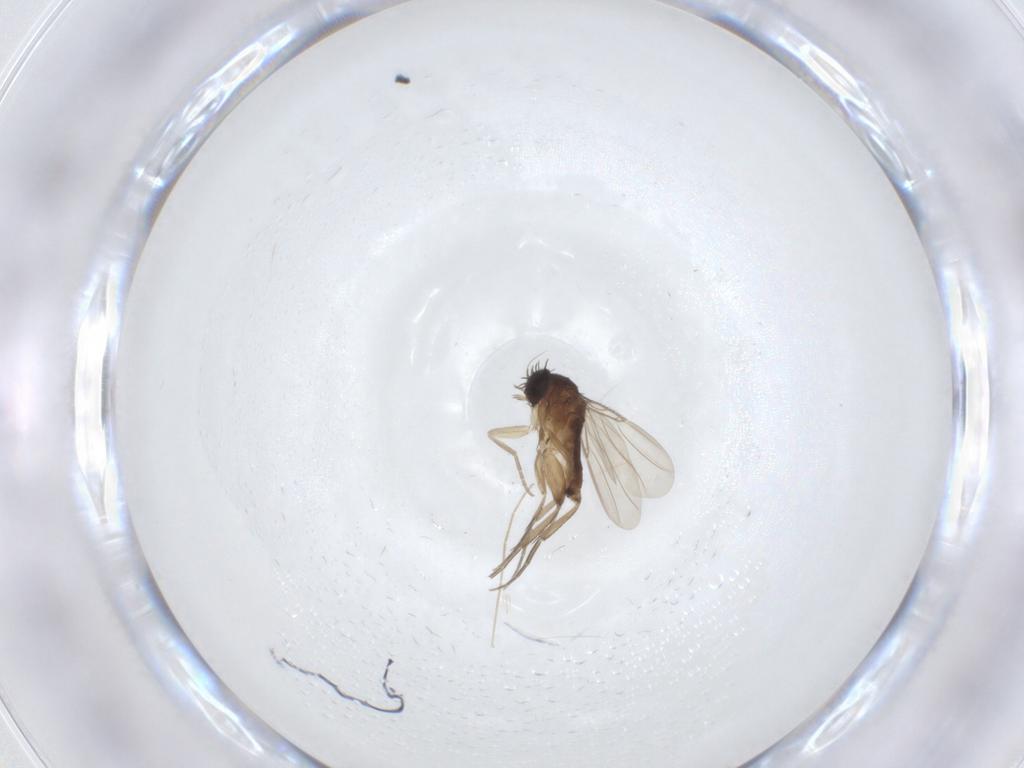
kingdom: Animalia
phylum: Arthropoda
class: Insecta
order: Diptera
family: Phoridae
